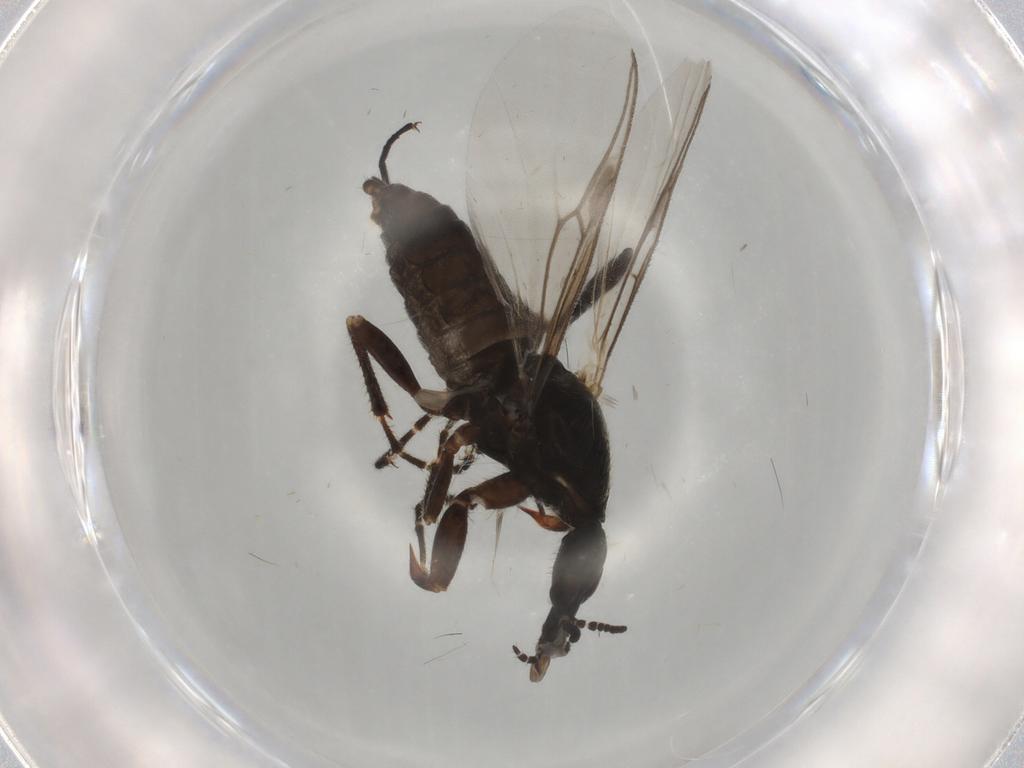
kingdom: Animalia
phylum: Arthropoda
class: Insecta
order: Diptera
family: Bibionidae
